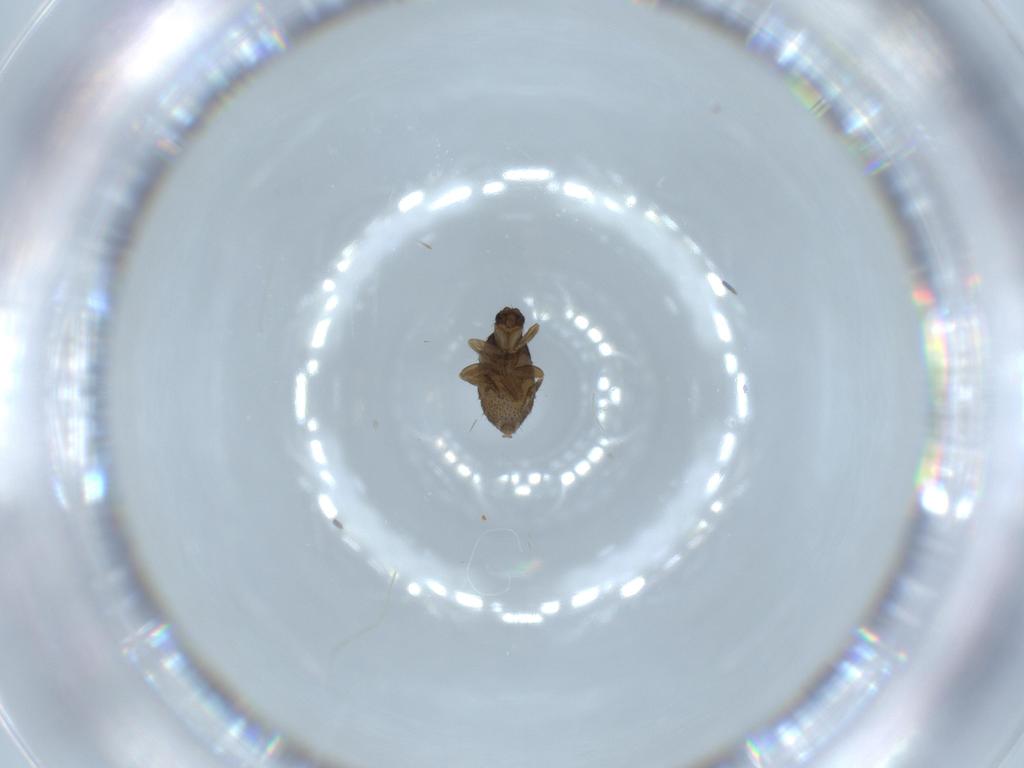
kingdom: Animalia
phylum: Arthropoda
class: Insecta
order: Diptera
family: Phoridae
